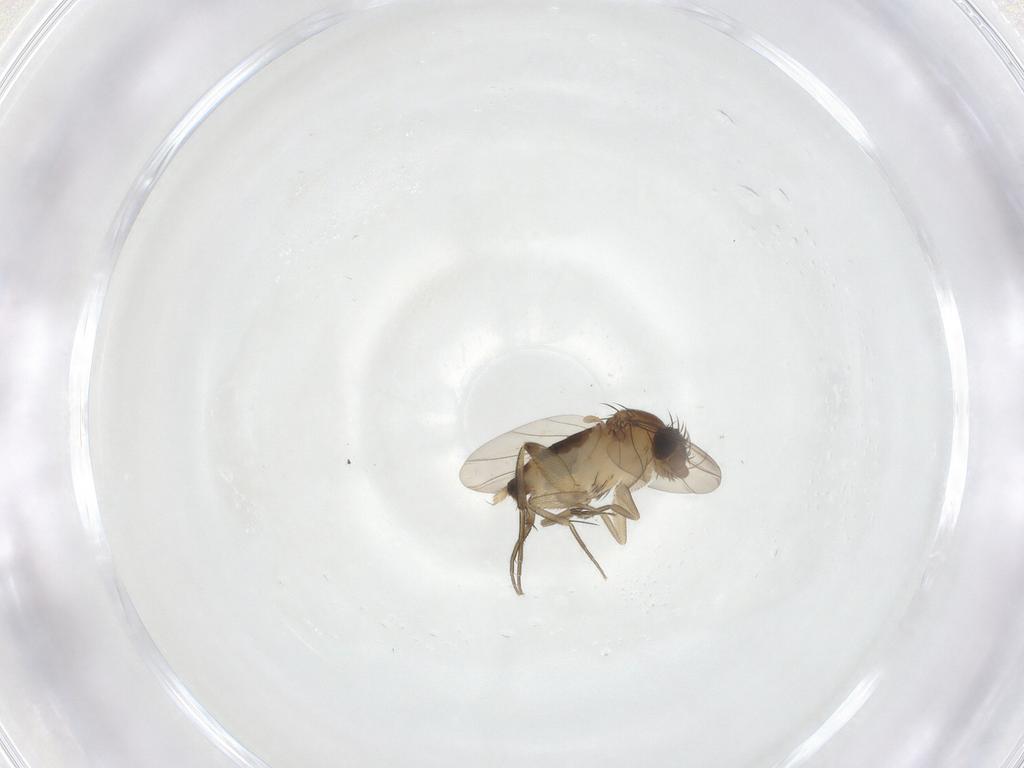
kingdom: Animalia
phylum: Arthropoda
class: Insecta
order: Diptera
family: Phoridae
